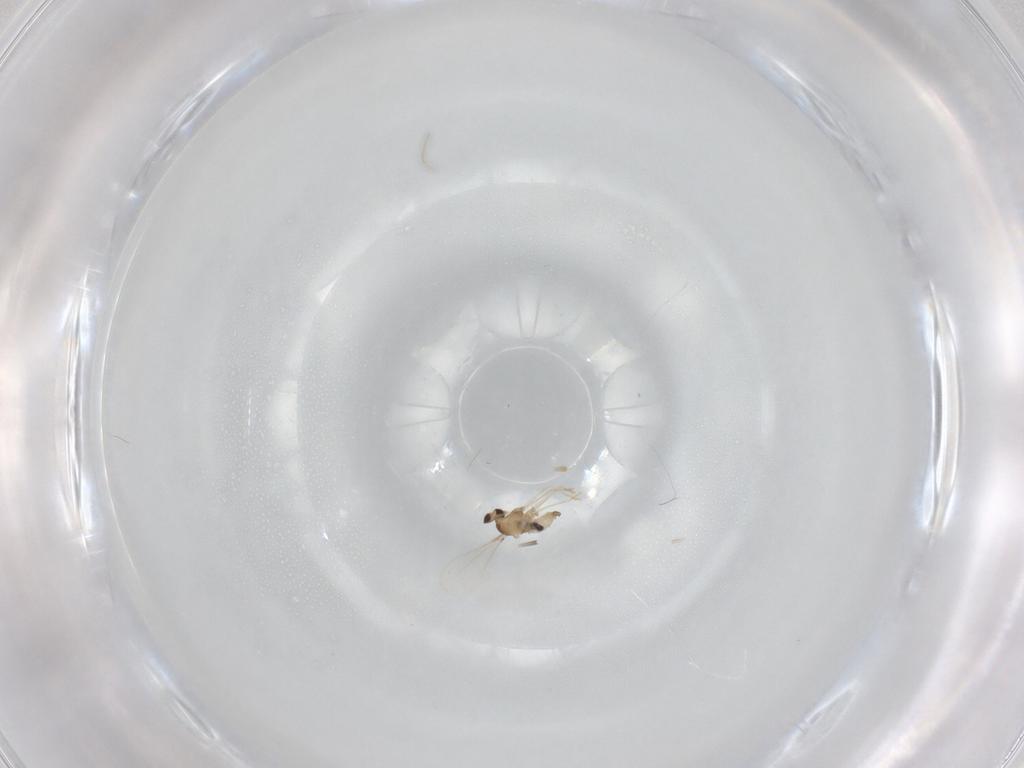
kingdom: Animalia
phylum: Arthropoda
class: Insecta
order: Diptera
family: Cecidomyiidae
